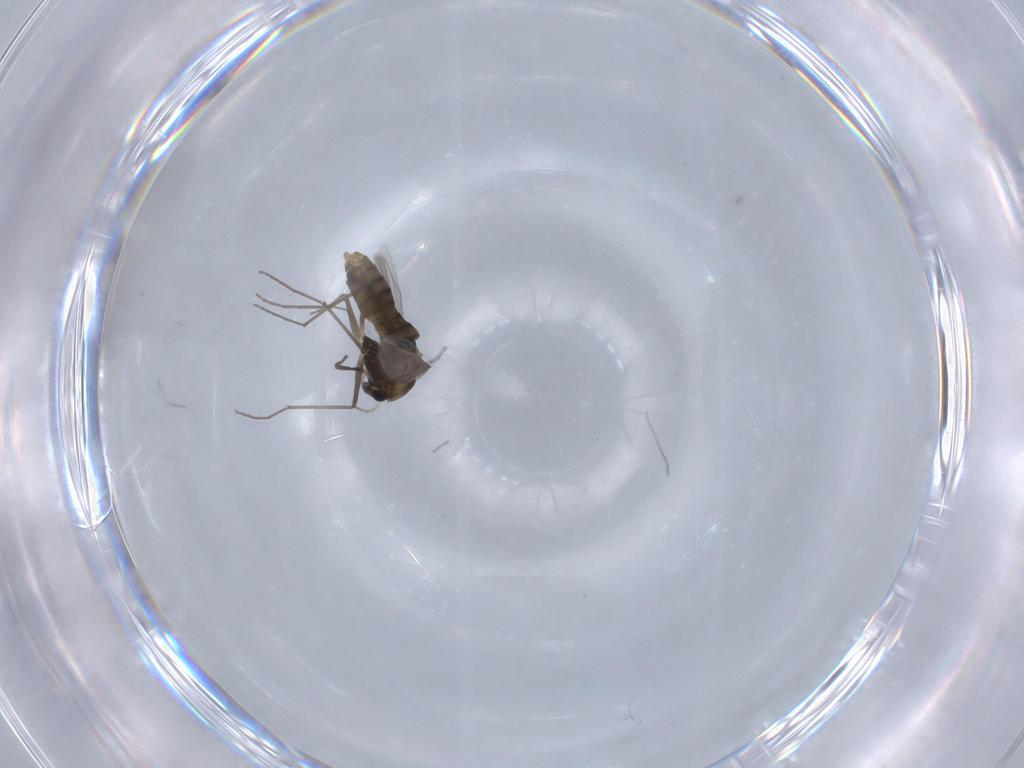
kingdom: Animalia
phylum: Arthropoda
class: Insecta
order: Diptera
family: Chironomidae
